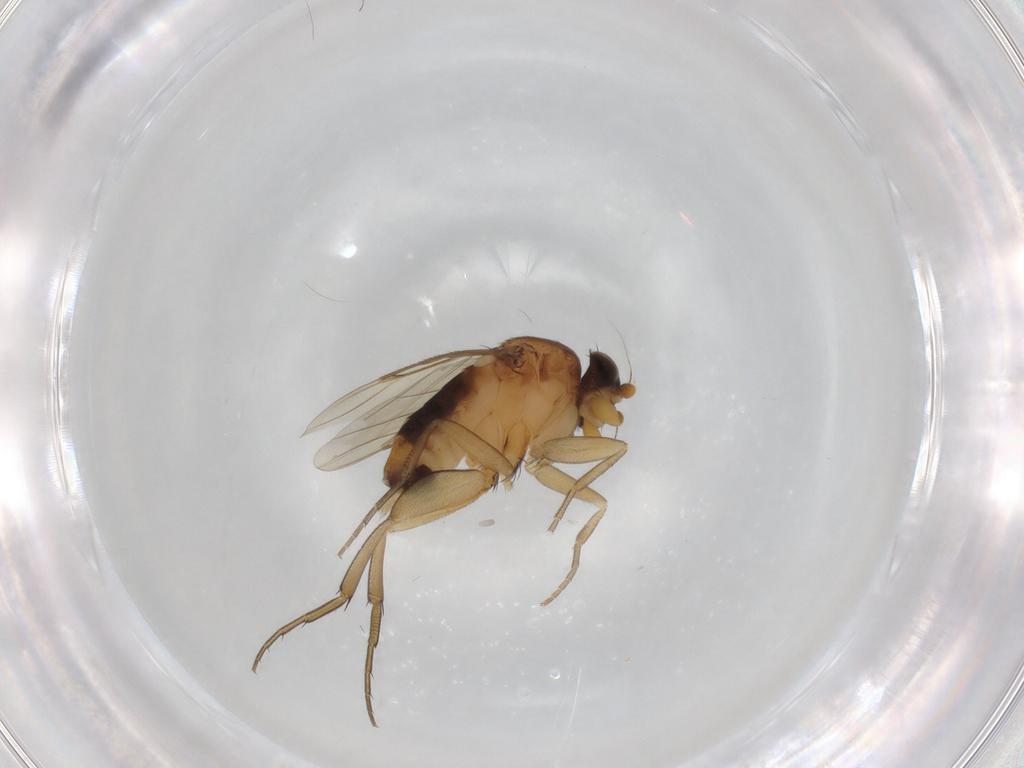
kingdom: Animalia
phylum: Arthropoda
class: Insecta
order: Diptera
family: Phoridae
